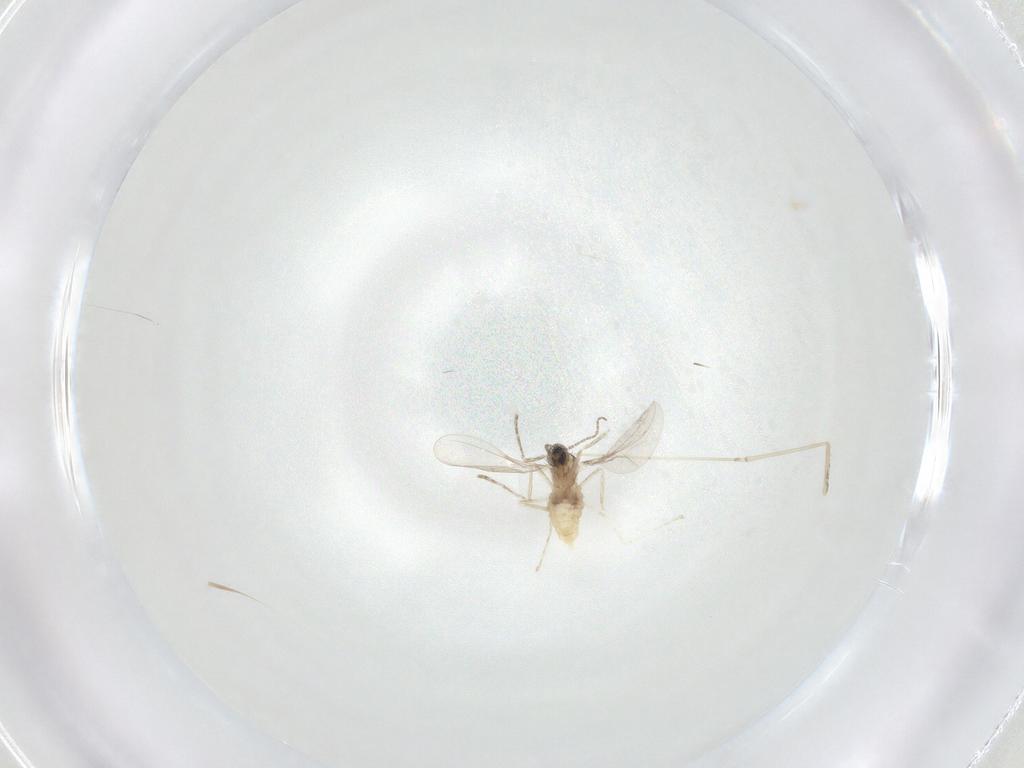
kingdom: Animalia
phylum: Arthropoda
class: Insecta
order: Diptera
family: Cecidomyiidae
